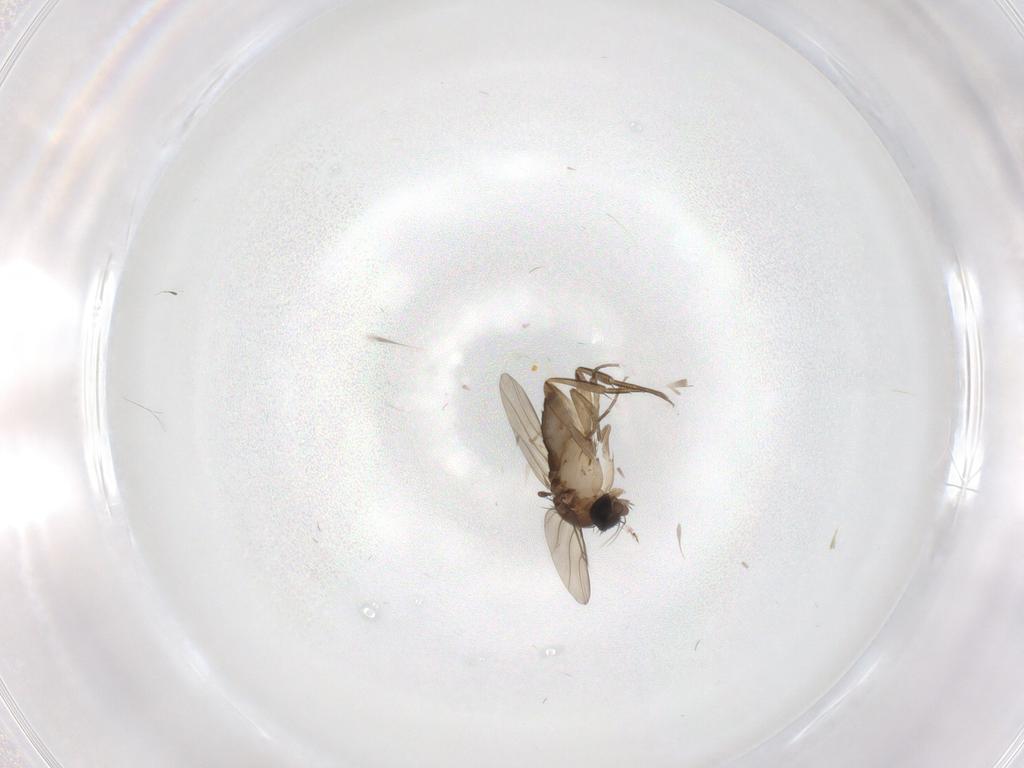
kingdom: Animalia
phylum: Arthropoda
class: Insecta
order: Diptera
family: Phoridae
